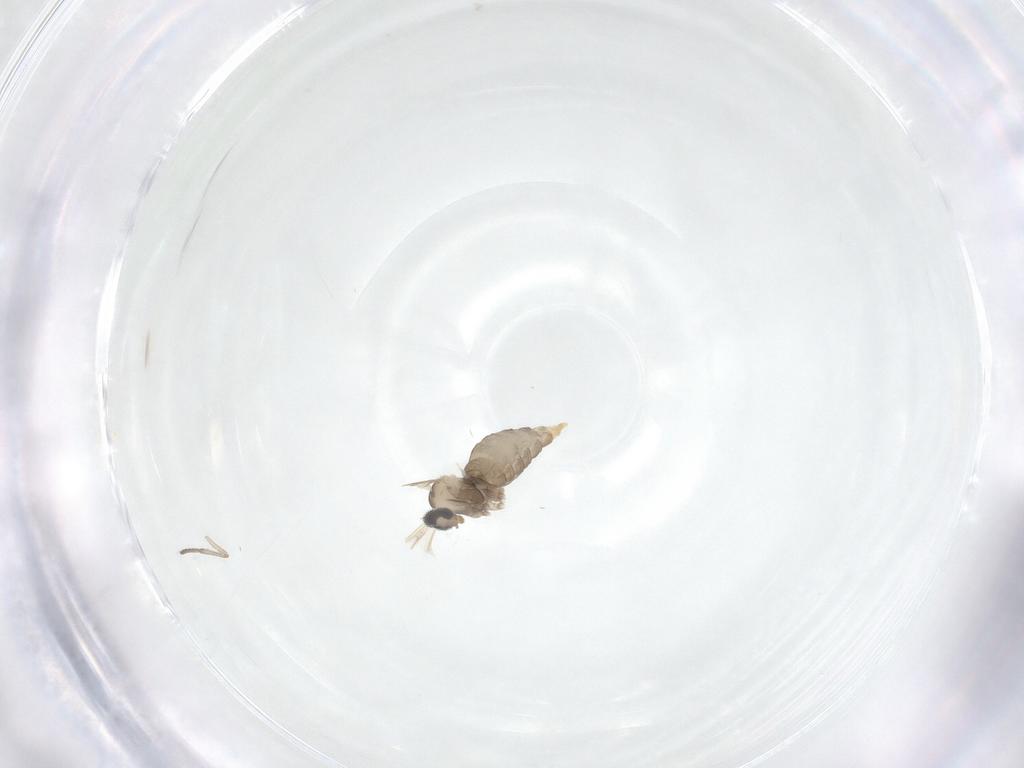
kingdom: Animalia
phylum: Arthropoda
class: Insecta
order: Diptera
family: Cecidomyiidae
